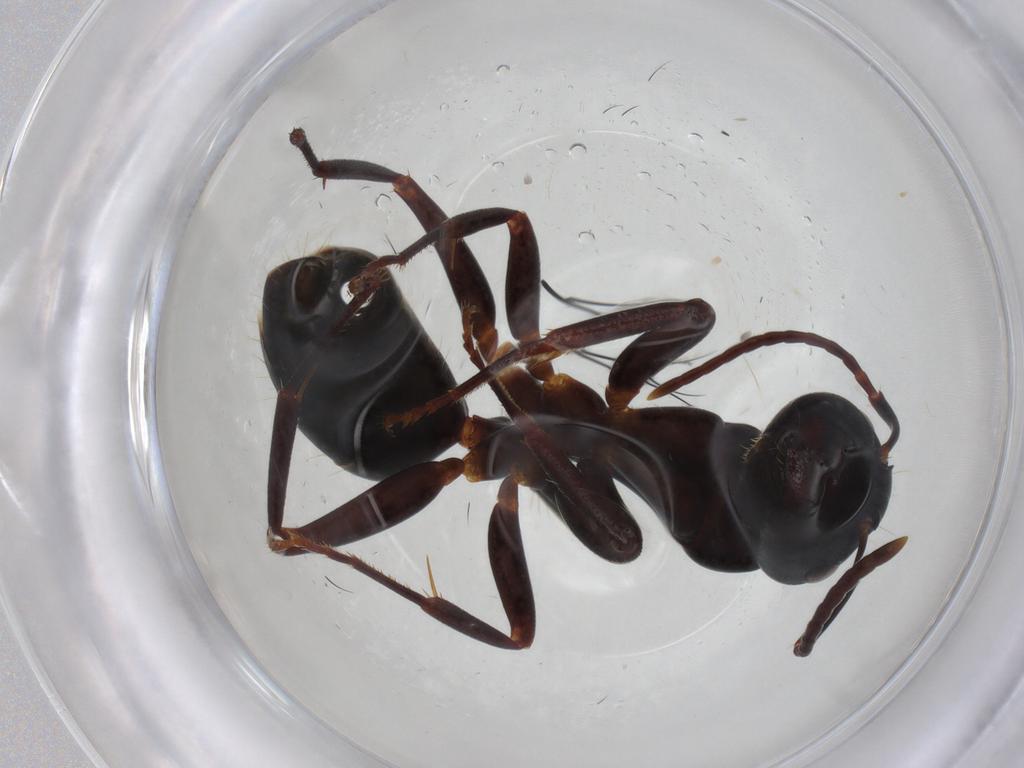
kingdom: Animalia
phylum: Arthropoda
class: Insecta
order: Hymenoptera
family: Formicidae
